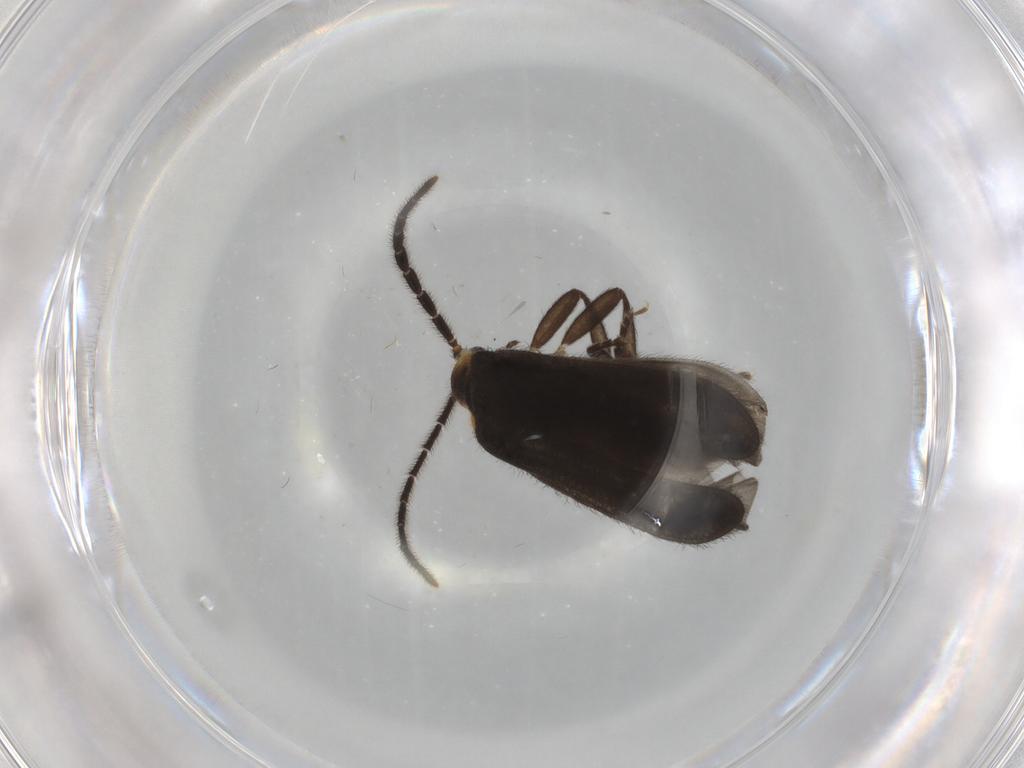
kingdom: Animalia
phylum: Arthropoda
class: Insecta
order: Coleoptera
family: Lycidae
